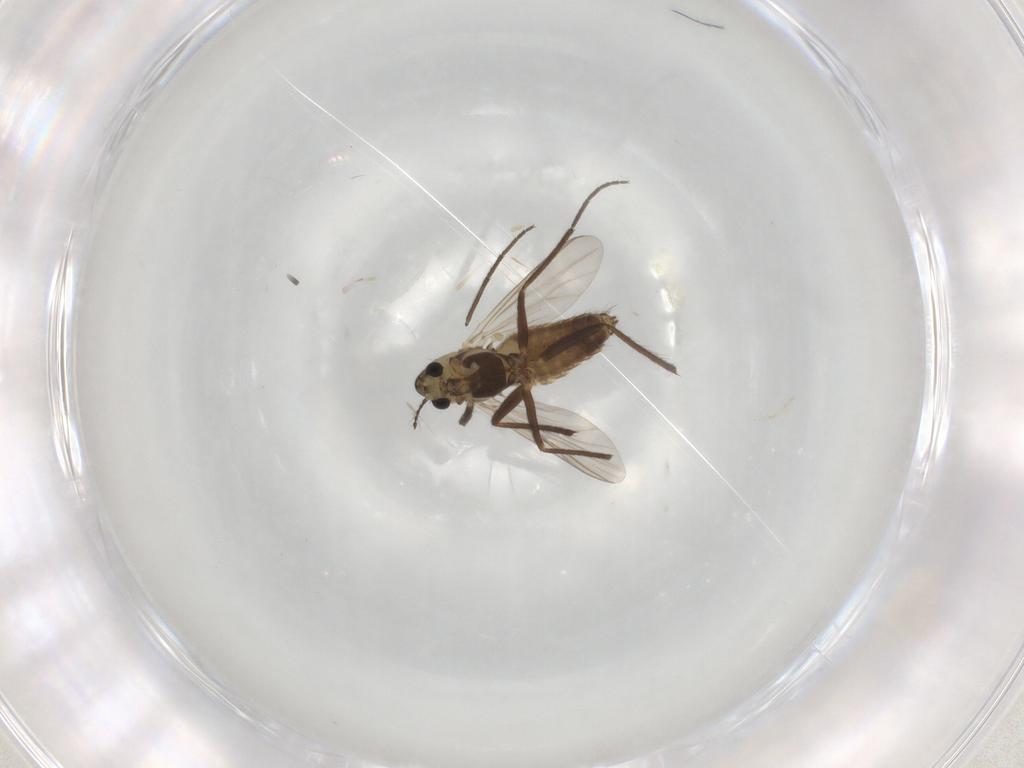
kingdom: Animalia
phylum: Arthropoda
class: Insecta
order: Diptera
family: Chironomidae
